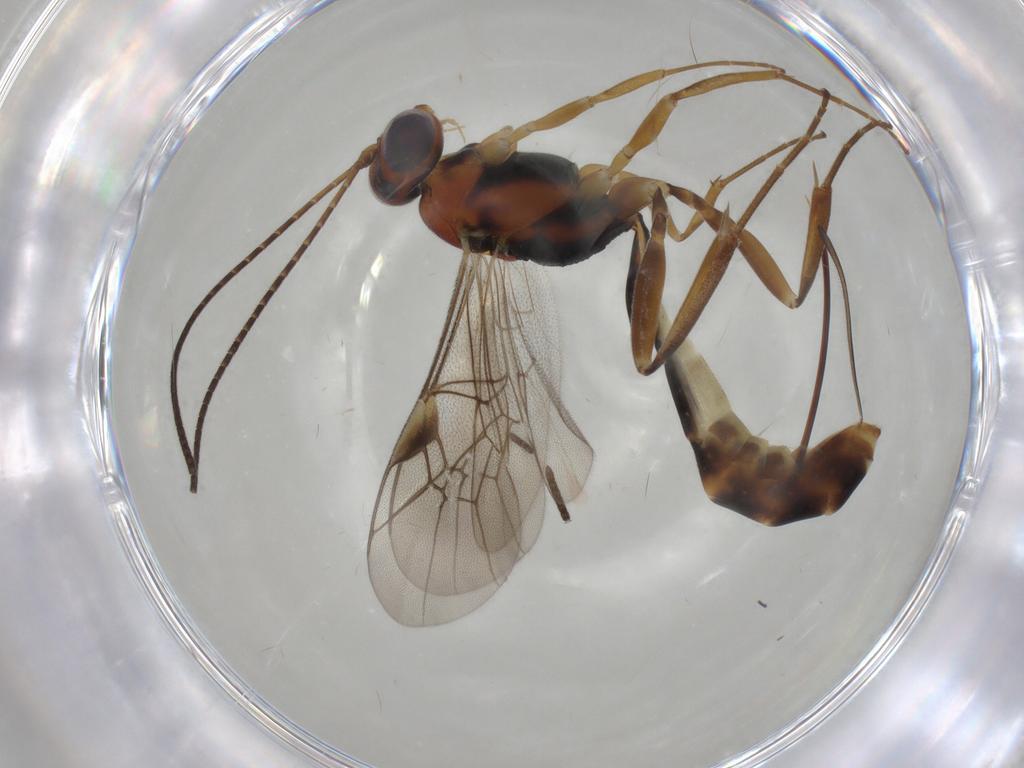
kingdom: Animalia
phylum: Arthropoda
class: Insecta
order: Hymenoptera
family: Ichneumonidae
